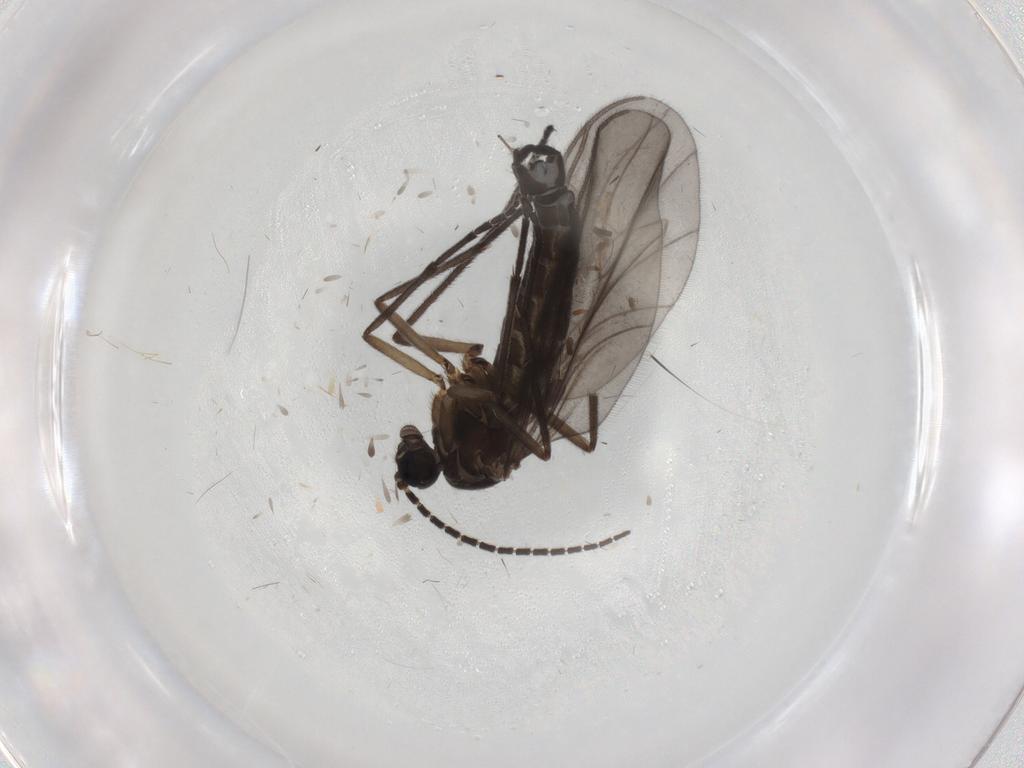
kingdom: Animalia
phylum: Arthropoda
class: Insecta
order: Diptera
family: Sciaridae
